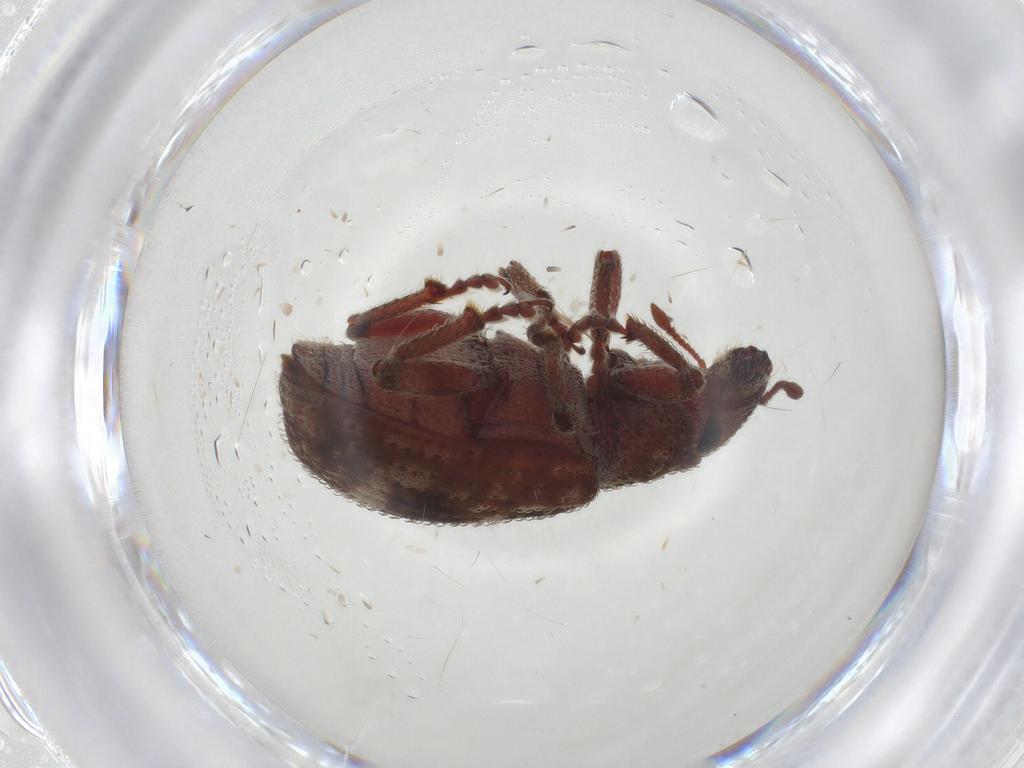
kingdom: Animalia
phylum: Arthropoda
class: Insecta
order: Coleoptera
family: Curculionidae
